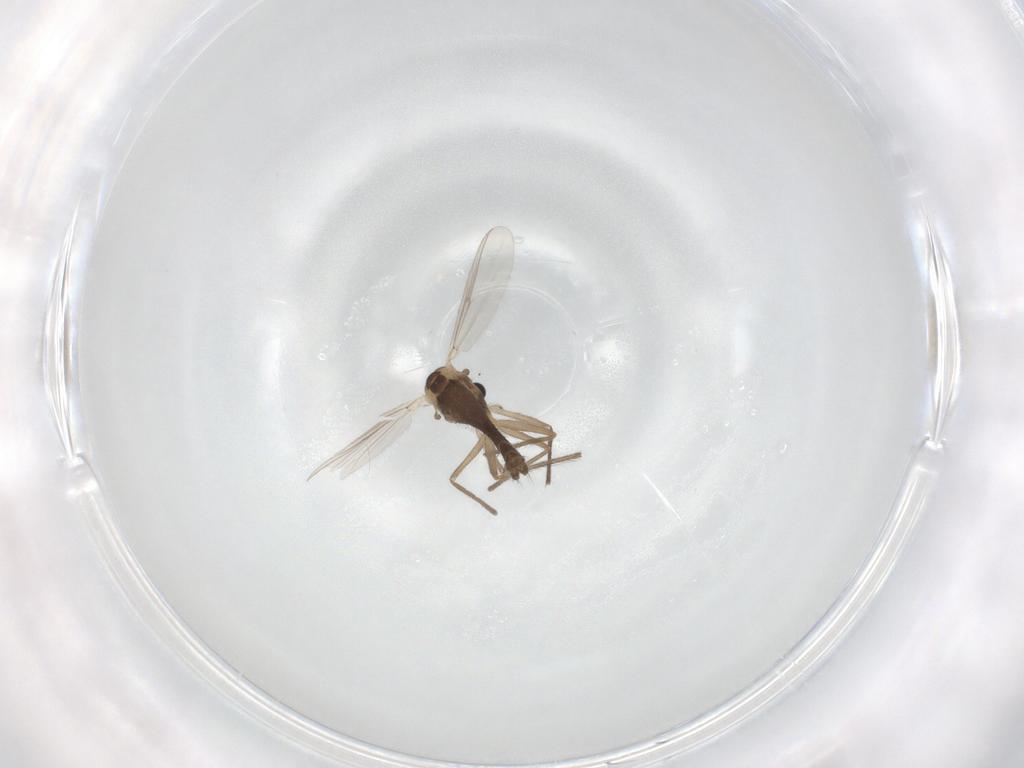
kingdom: Animalia
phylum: Arthropoda
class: Insecta
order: Diptera
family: Chironomidae
